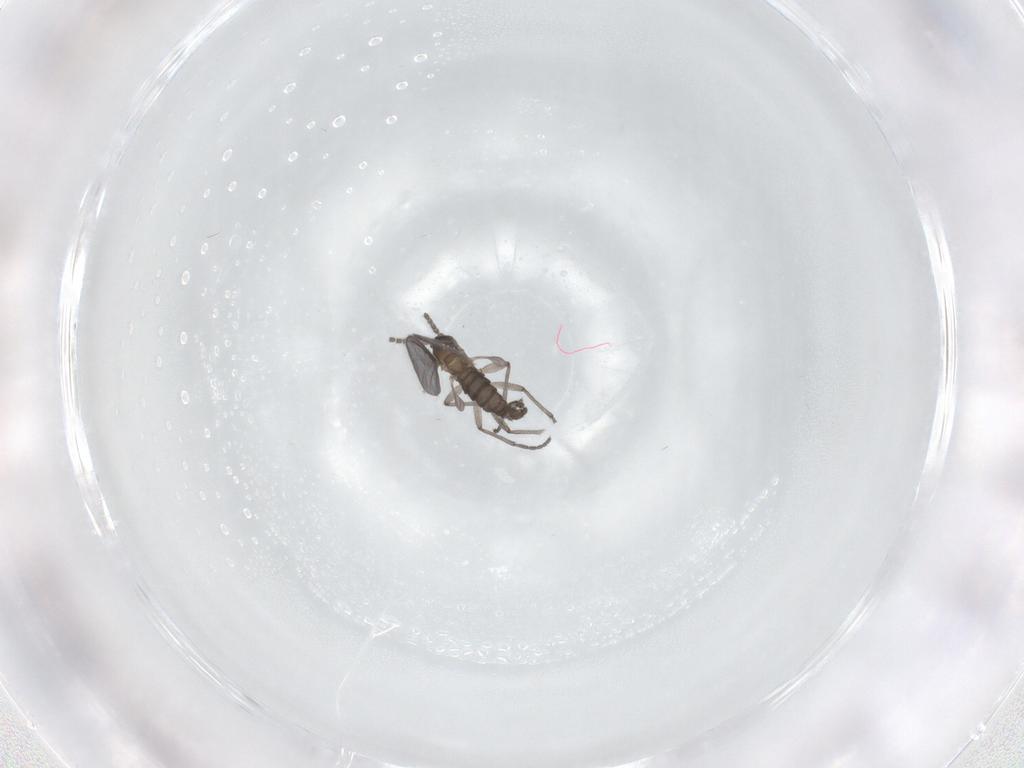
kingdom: Animalia
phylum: Arthropoda
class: Insecta
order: Diptera
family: Sciaridae
